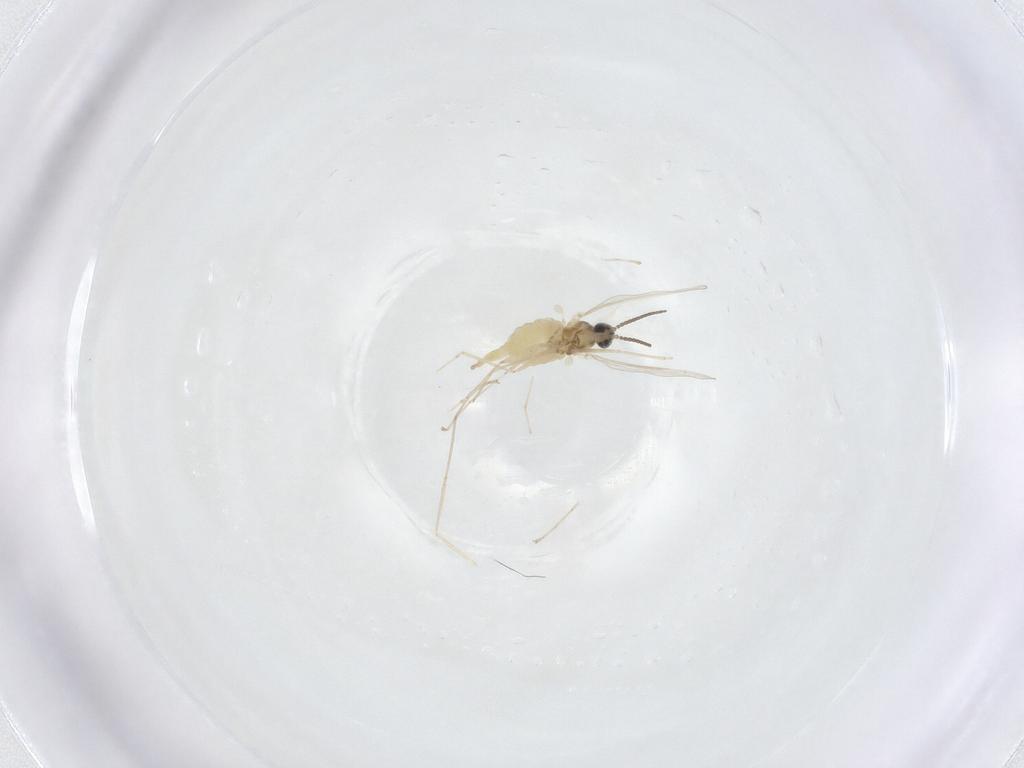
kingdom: Animalia
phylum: Arthropoda
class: Insecta
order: Diptera
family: Cecidomyiidae
